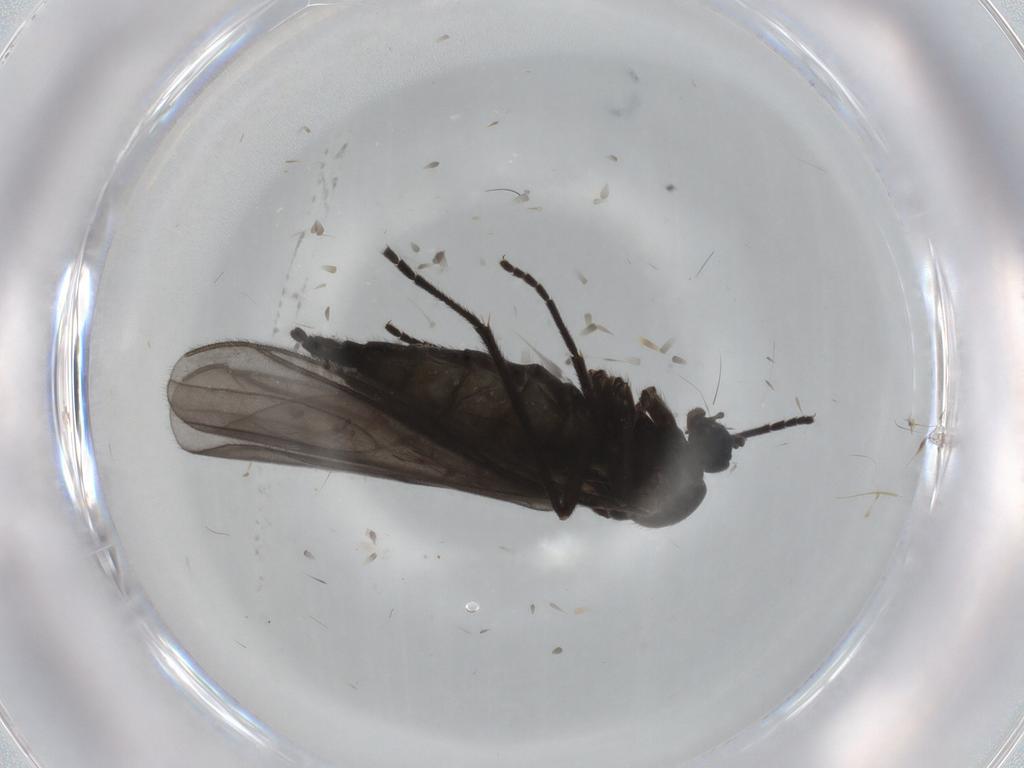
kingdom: Animalia
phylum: Arthropoda
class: Insecta
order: Diptera
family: Sciaridae
